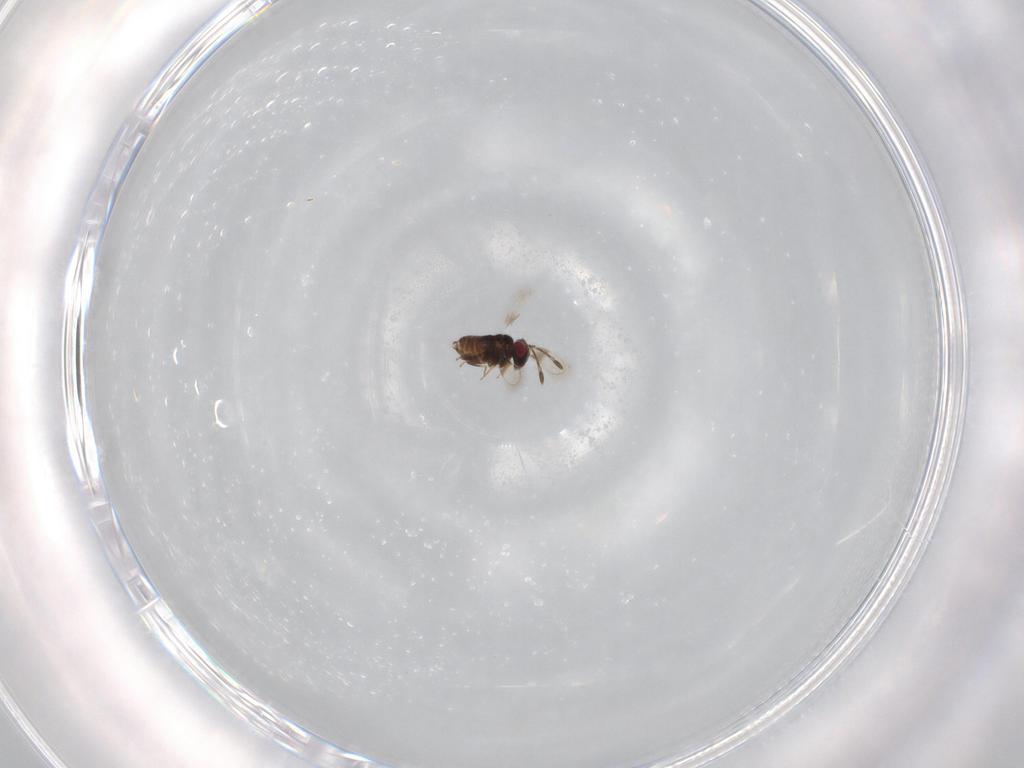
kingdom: Animalia
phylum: Arthropoda
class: Insecta
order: Hymenoptera
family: Azotidae
